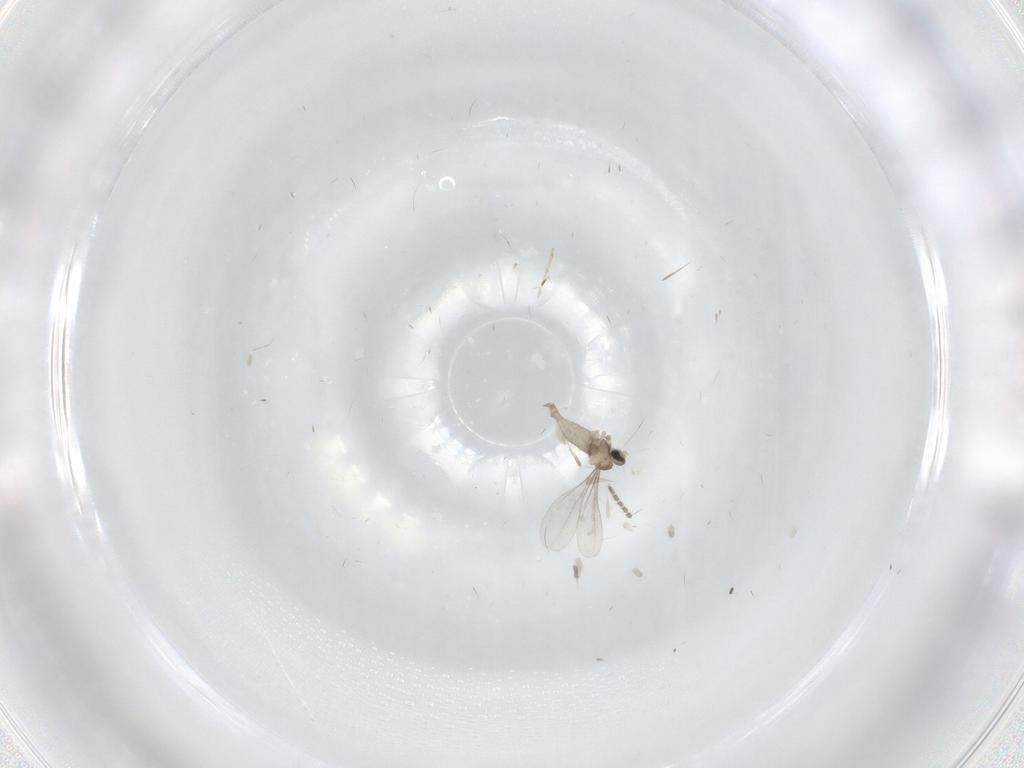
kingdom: Animalia
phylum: Arthropoda
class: Insecta
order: Diptera
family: Sciaridae
